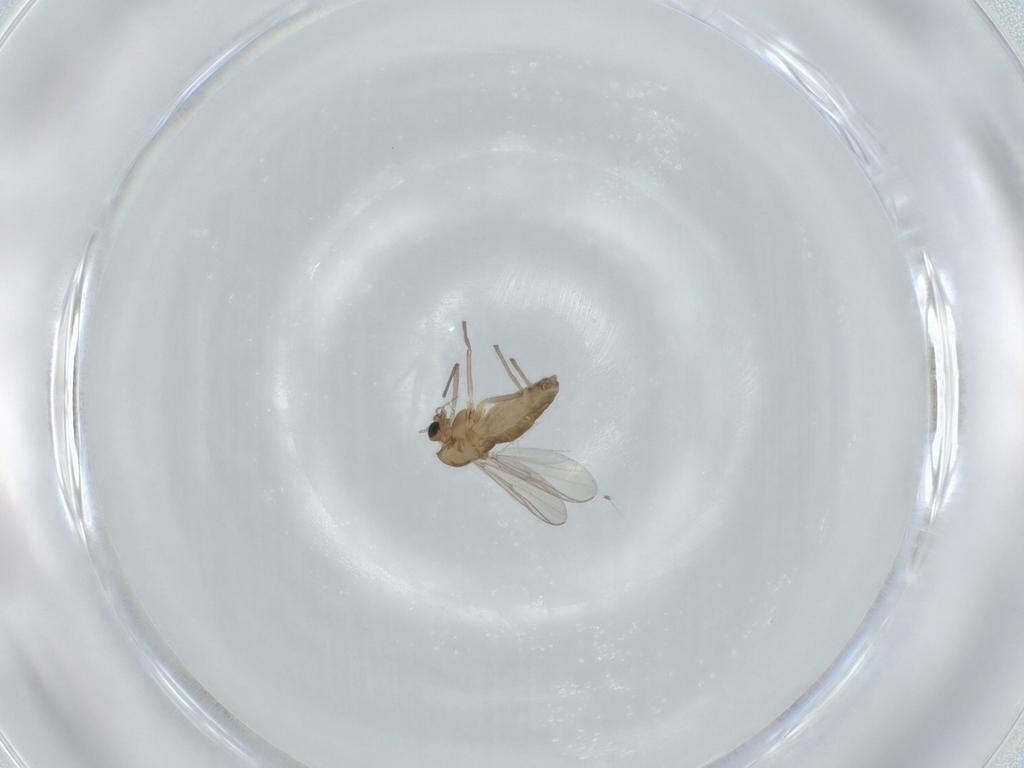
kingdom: Animalia
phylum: Arthropoda
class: Insecta
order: Diptera
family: Chironomidae
